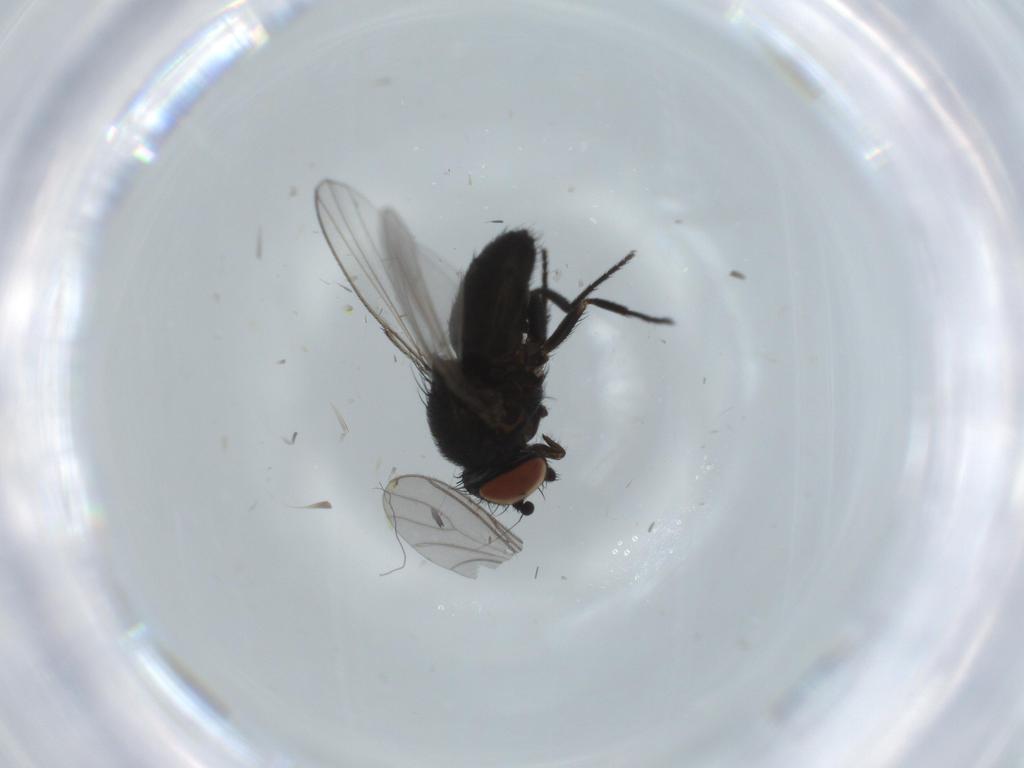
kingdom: Animalia
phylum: Arthropoda
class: Insecta
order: Diptera
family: Milichiidae
